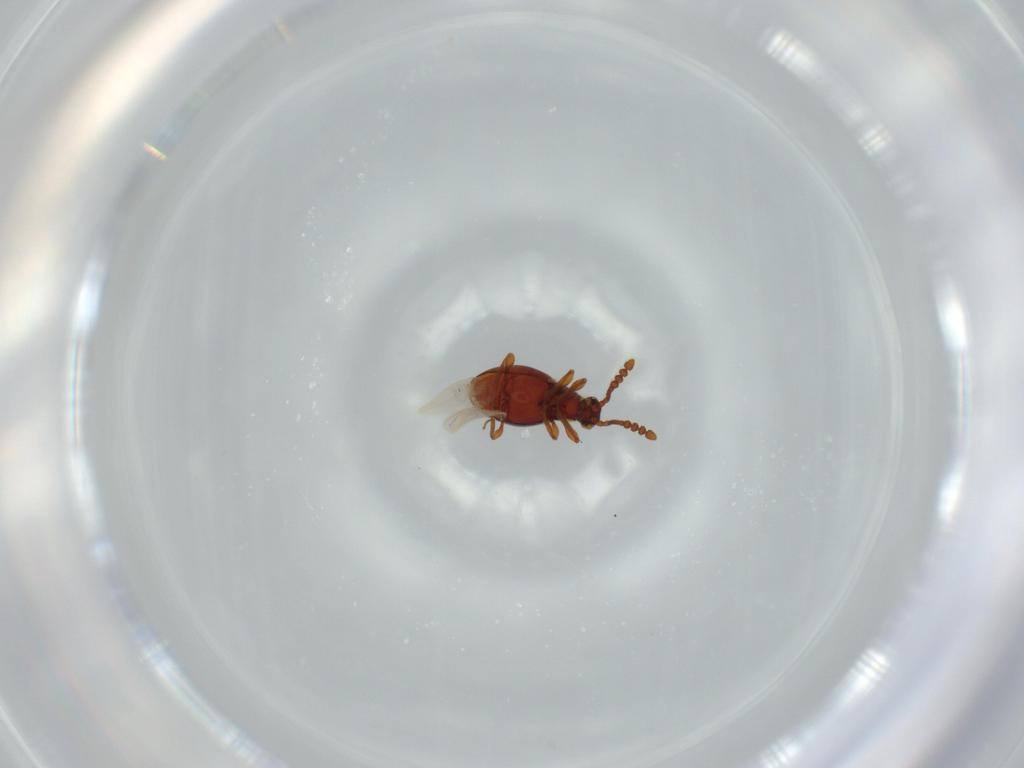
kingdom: Animalia
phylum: Arthropoda
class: Insecta
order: Coleoptera
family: Staphylinidae
